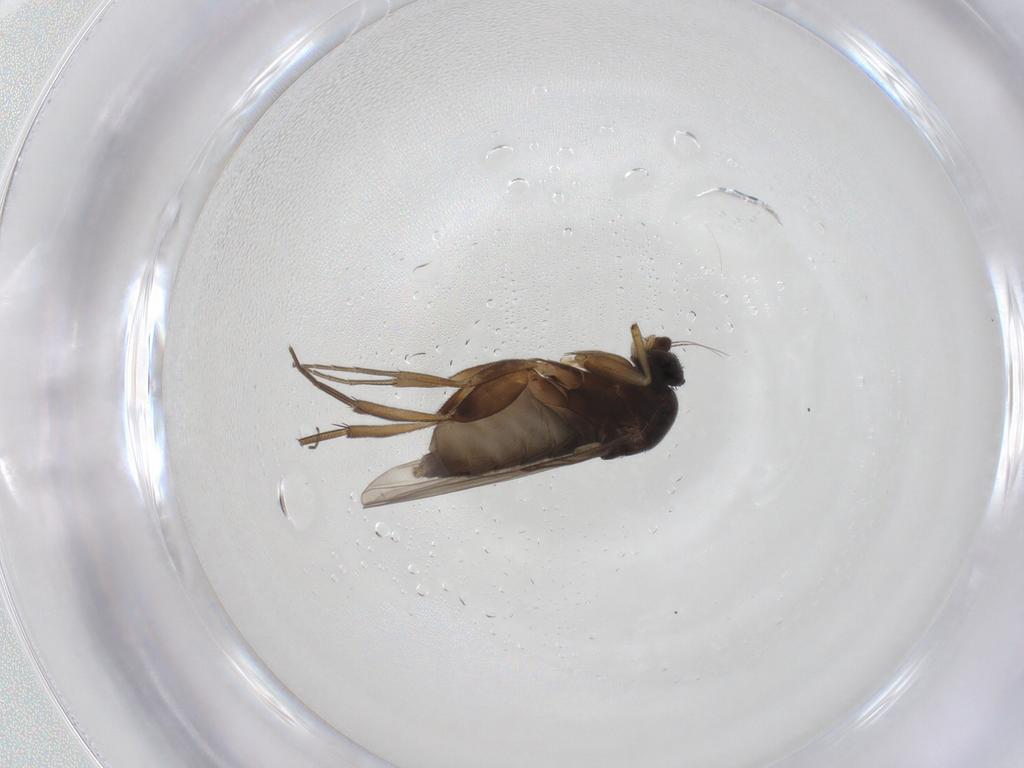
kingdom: Animalia
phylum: Arthropoda
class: Insecta
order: Diptera
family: Phoridae
